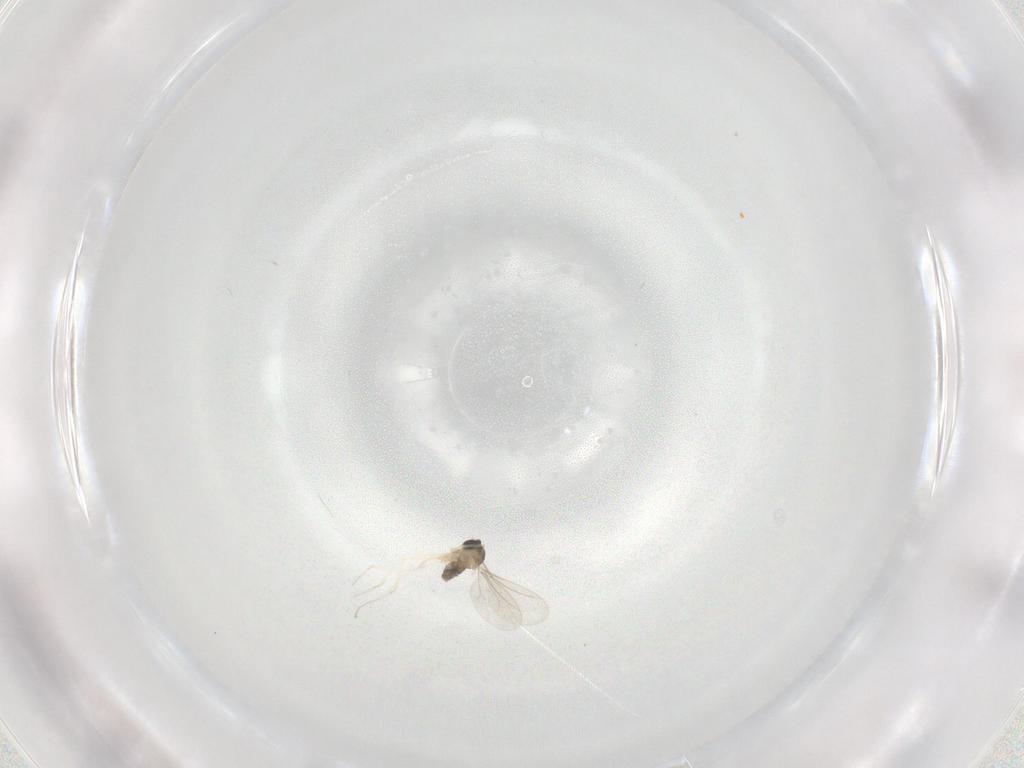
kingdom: Animalia
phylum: Arthropoda
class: Insecta
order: Diptera
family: Cecidomyiidae
